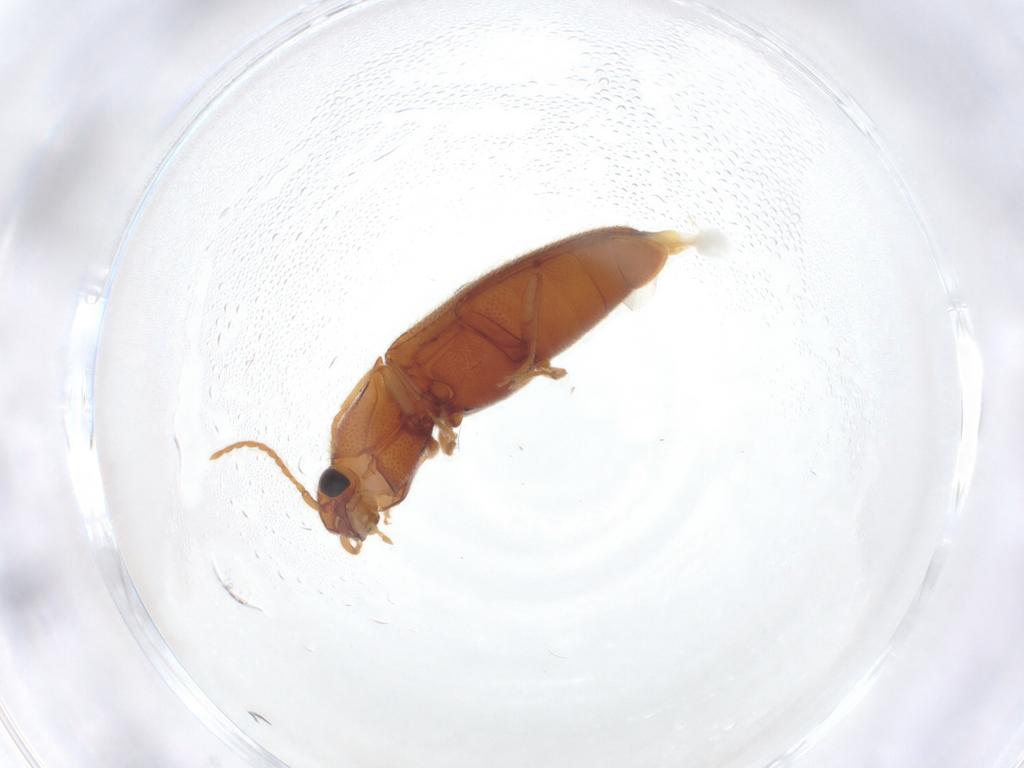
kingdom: Animalia
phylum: Arthropoda
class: Insecta
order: Coleoptera
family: Elateridae
